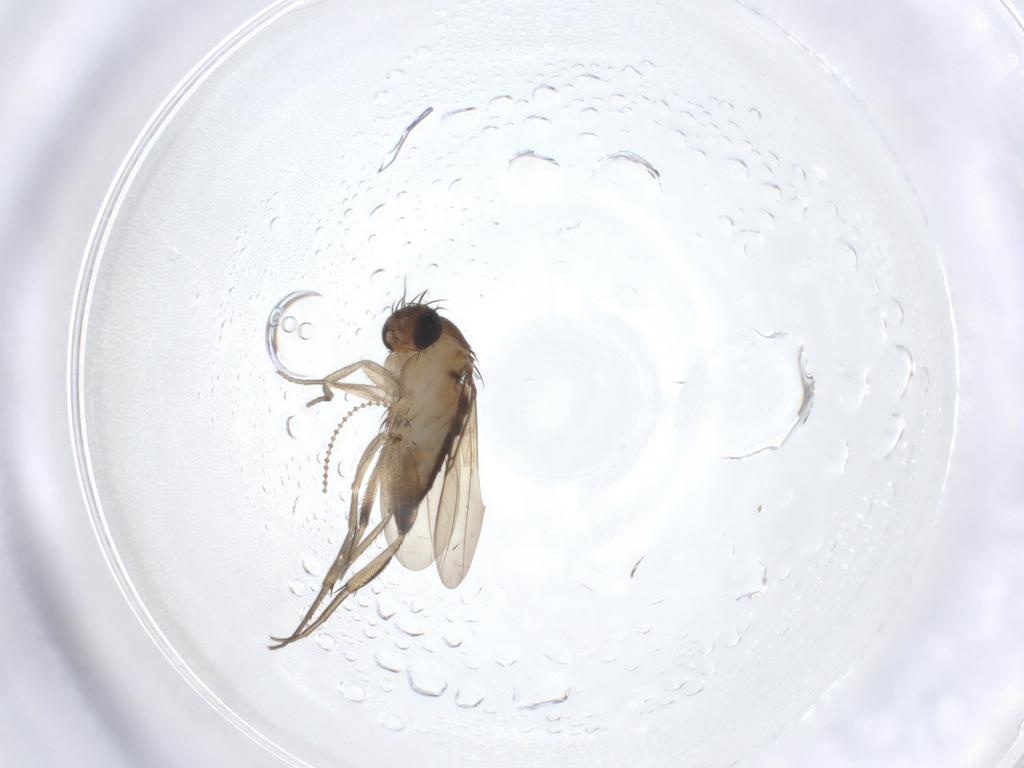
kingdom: Animalia
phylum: Arthropoda
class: Insecta
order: Diptera
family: Phoridae
